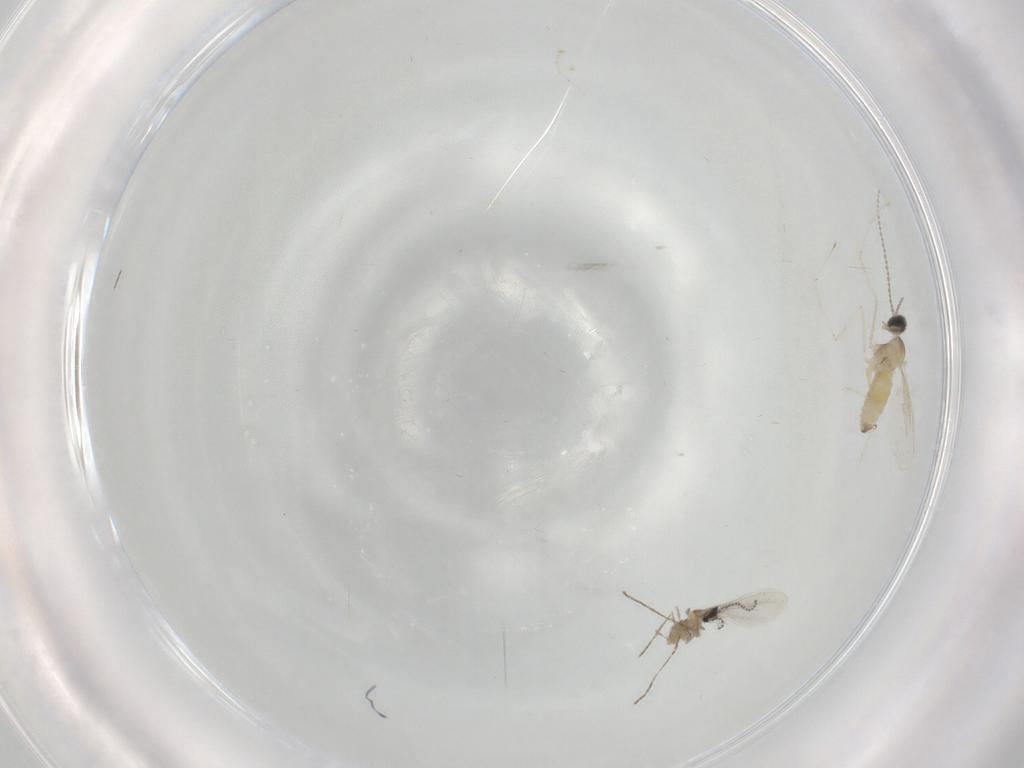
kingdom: Animalia
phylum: Arthropoda
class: Insecta
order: Diptera
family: Cecidomyiidae
